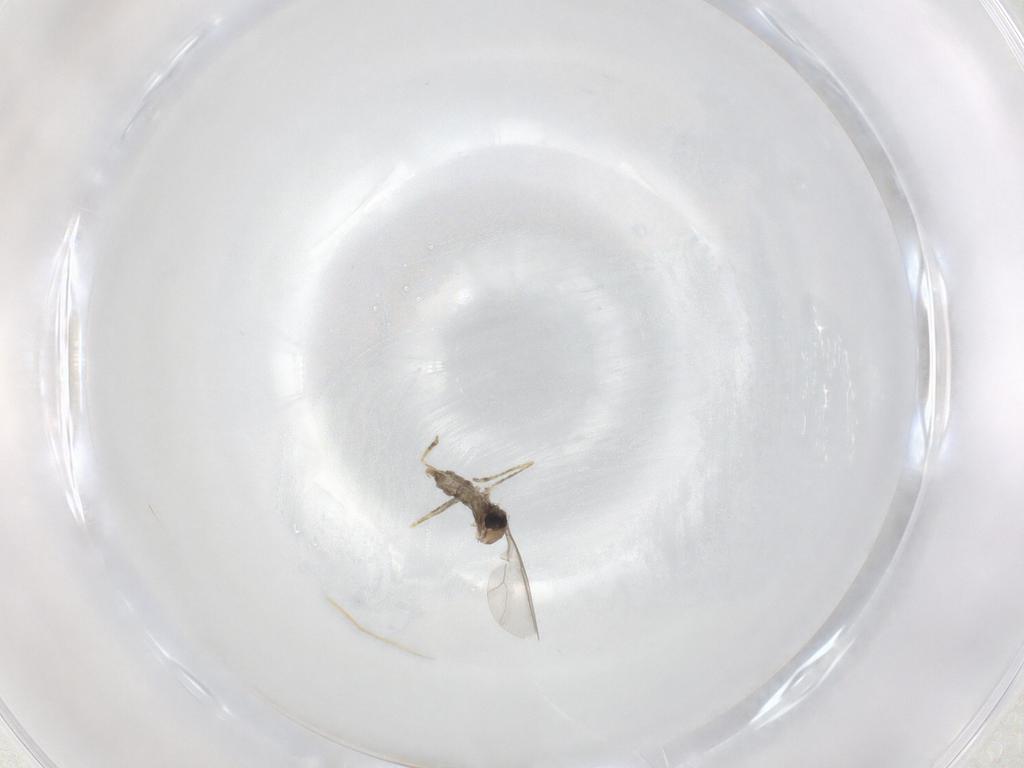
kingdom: Animalia
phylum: Arthropoda
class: Insecta
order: Diptera
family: Cecidomyiidae
